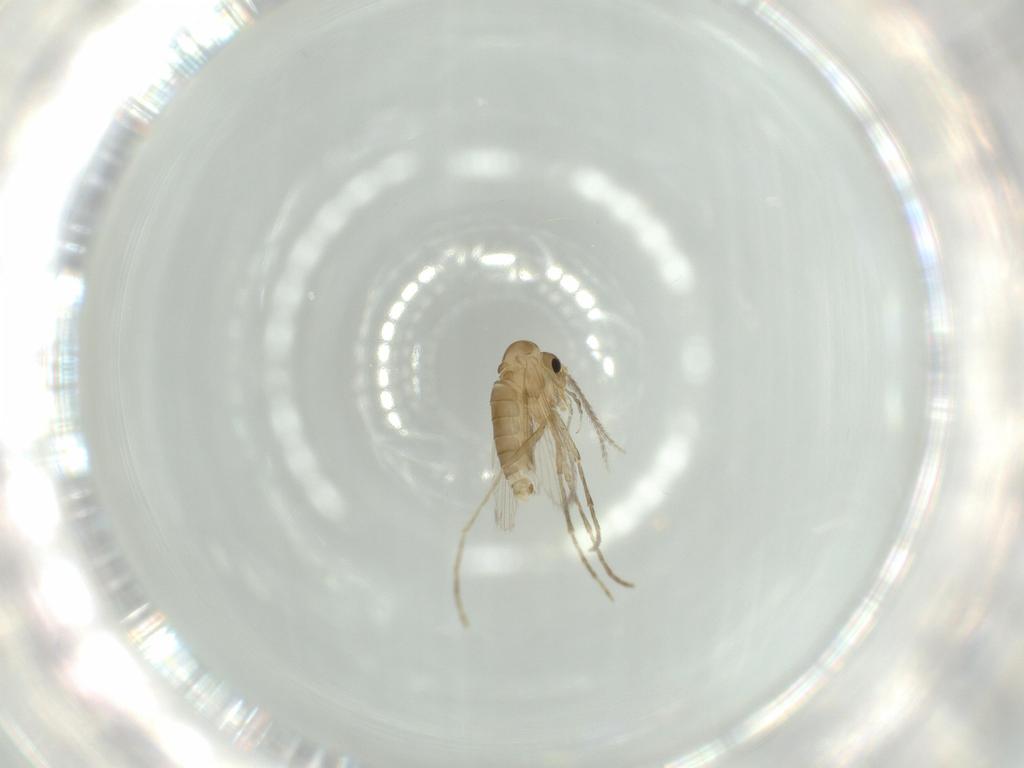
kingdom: Animalia
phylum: Arthropoda
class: Insecta
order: Diptera
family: Psychodidae
